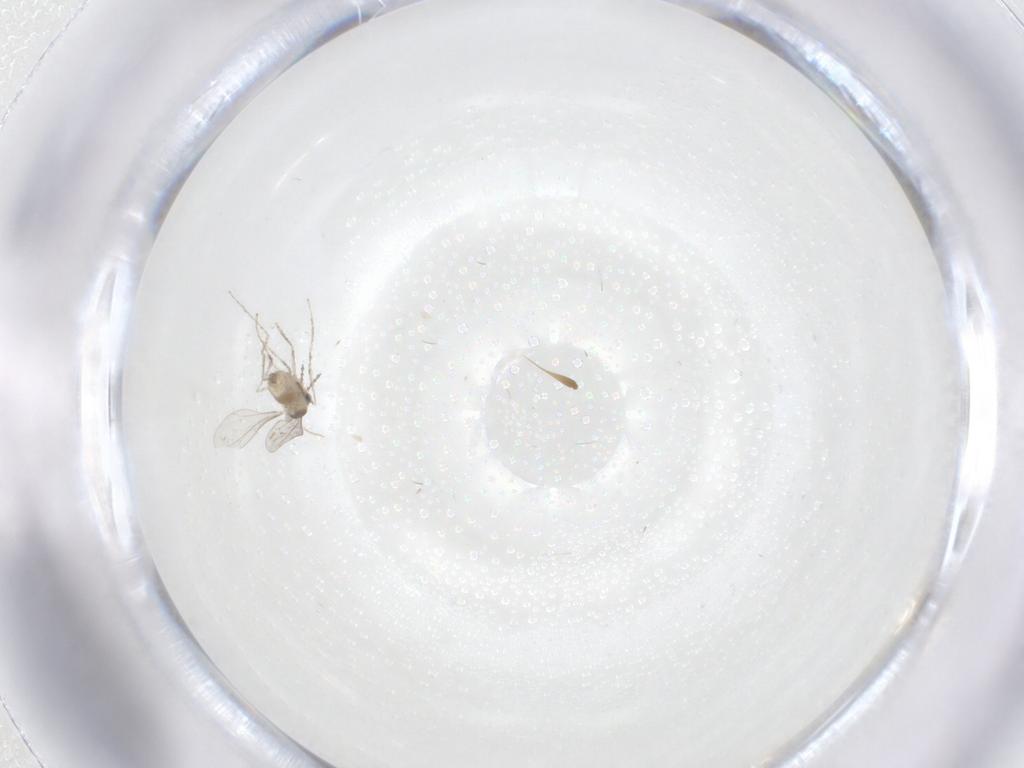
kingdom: Animalia
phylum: Arthropoda
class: Insecta
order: Diptera
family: Cecidomyiidae
